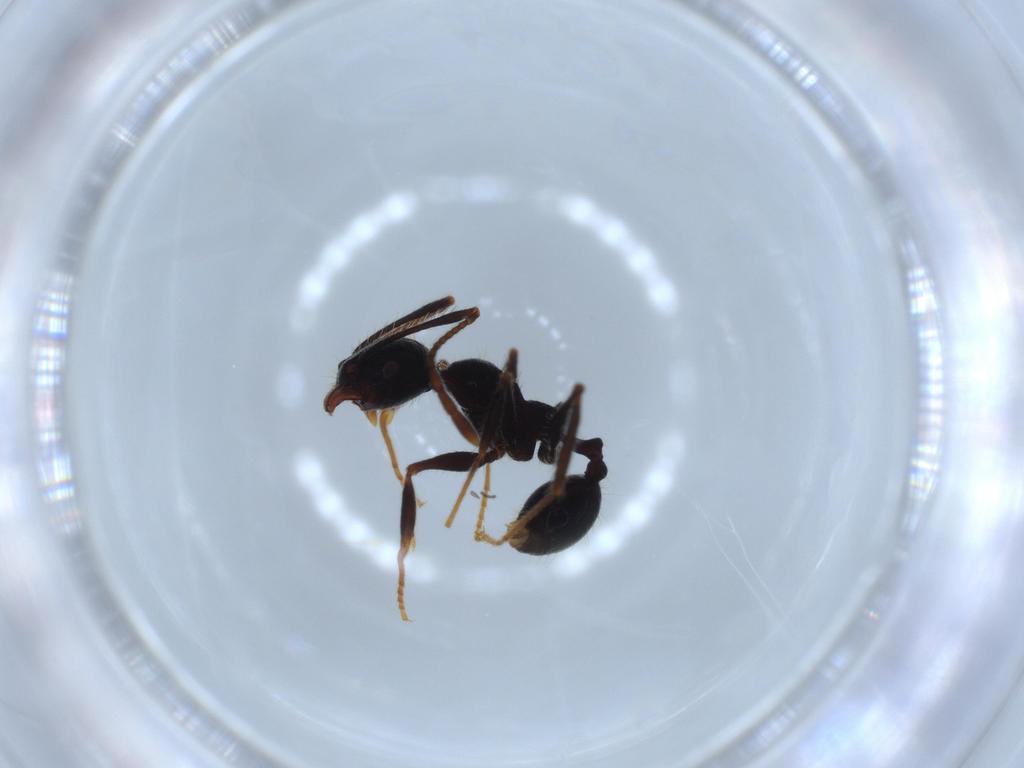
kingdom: Animalia
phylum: Arthropoda
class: Insecta
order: Hymenoptera
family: Formicidae
